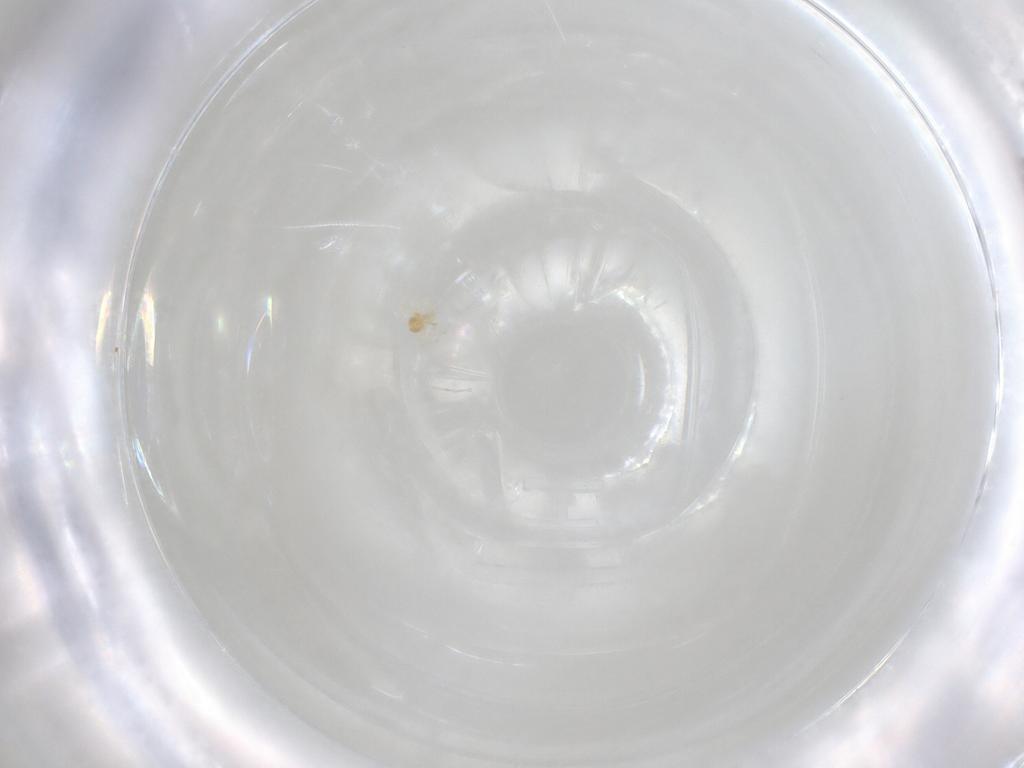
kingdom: Animalia
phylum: Arthropoda
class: Arachnida
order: Trombidiformes
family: Anystidae
